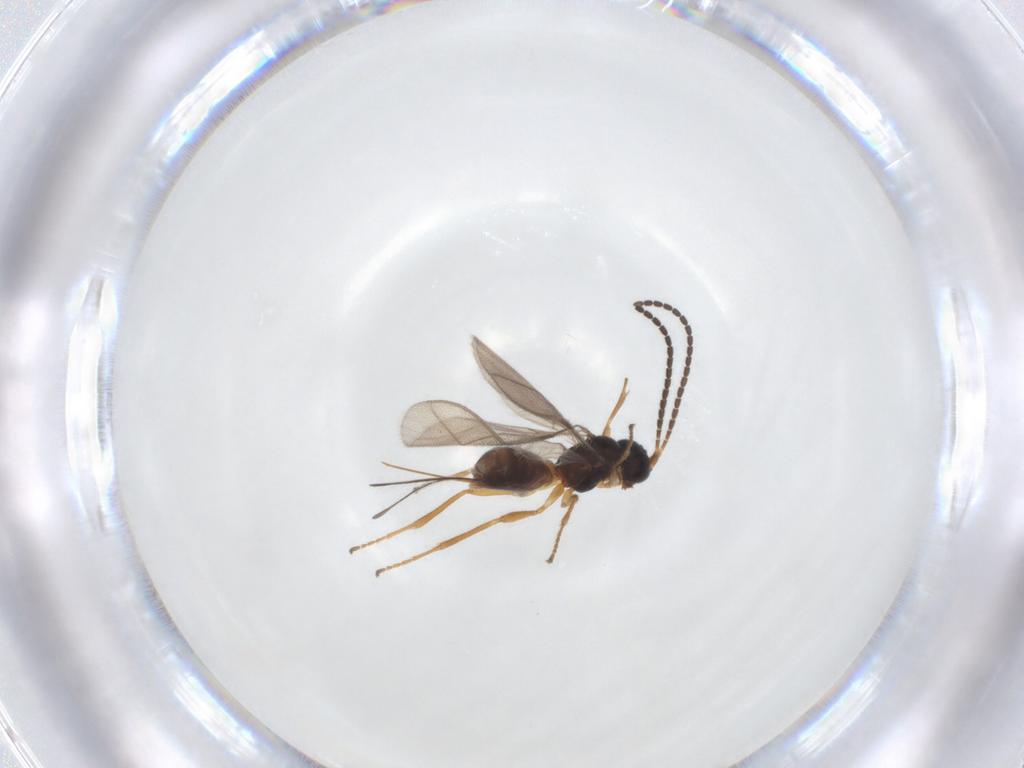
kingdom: Animalia
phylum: Arthropoda
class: Insecta
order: Hymenoptera
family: Braconidae
